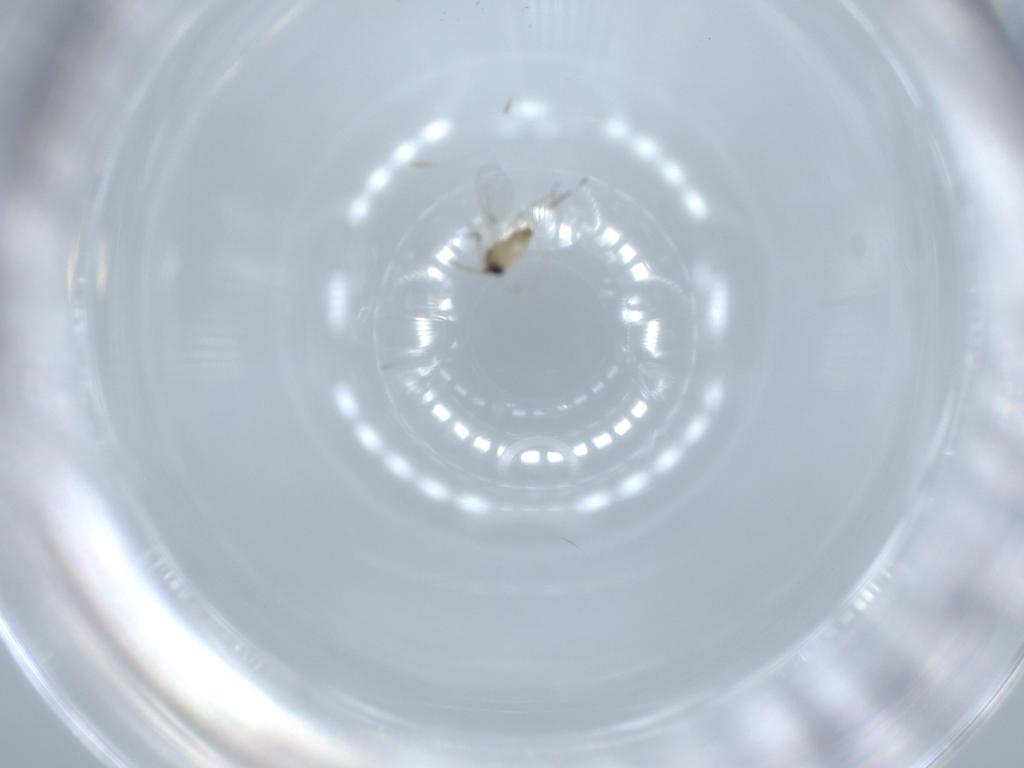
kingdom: Animalia
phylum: Arthropoda
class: Insecta
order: Diptera
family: Cecidomyiidae
